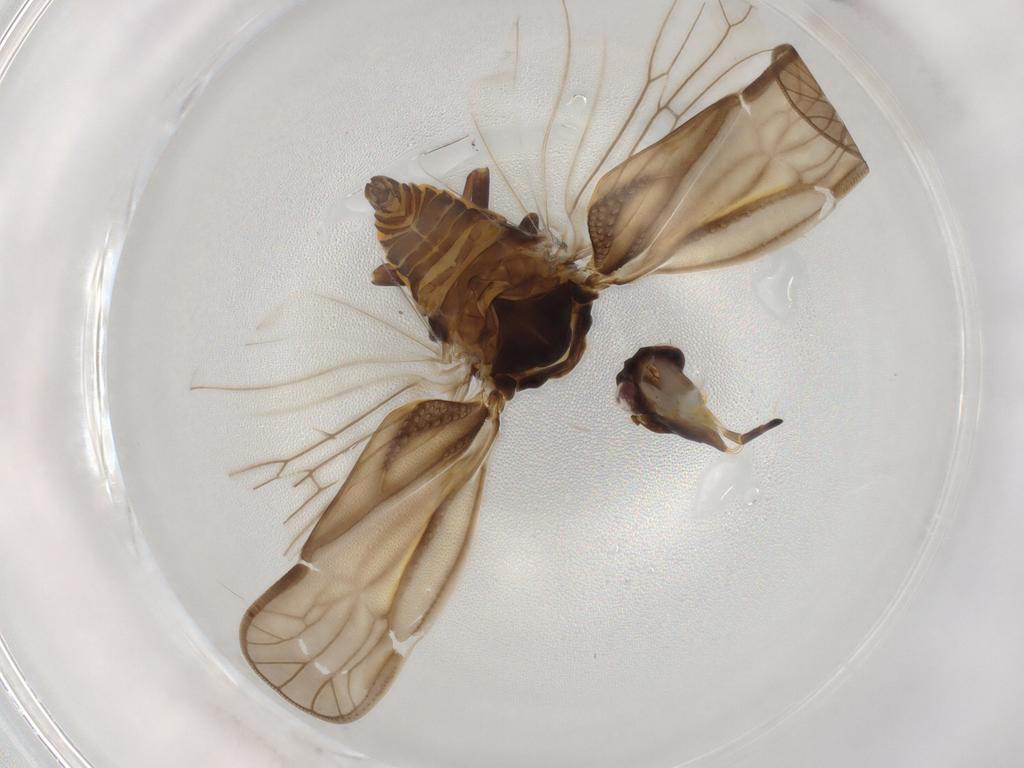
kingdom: Animalia
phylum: Arthropoda
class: Insecta
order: Hemiptera
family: Meenoplidae
